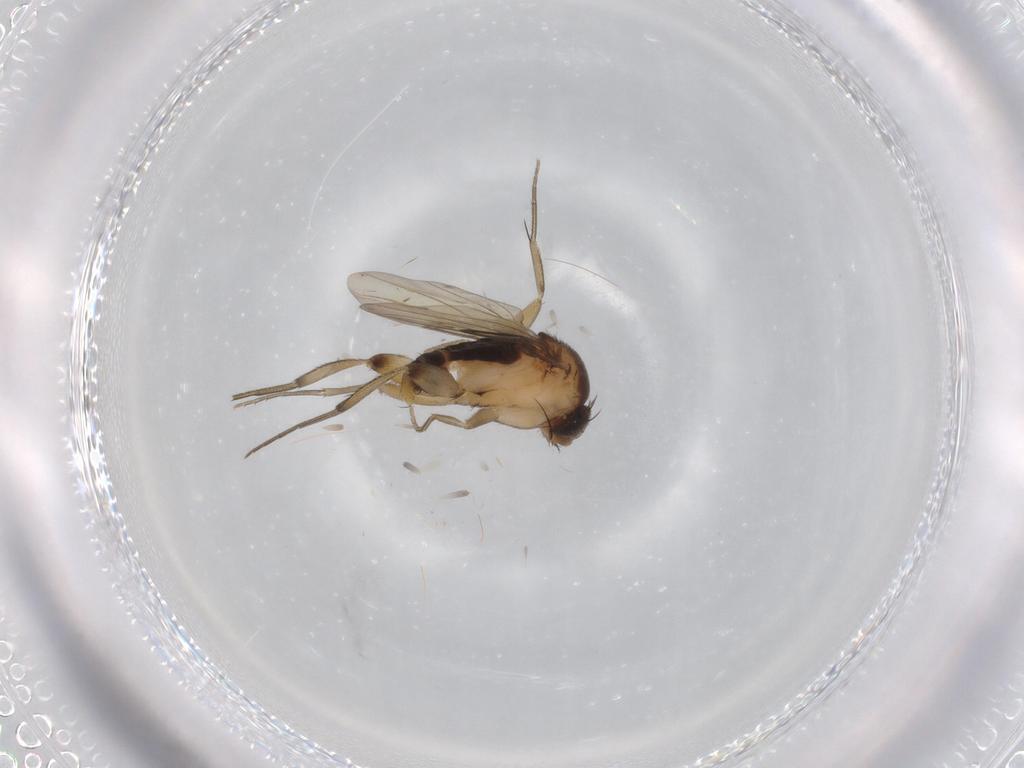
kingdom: Animalia
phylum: Arthropoda
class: Insecta
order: Diptera
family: Phoridae
